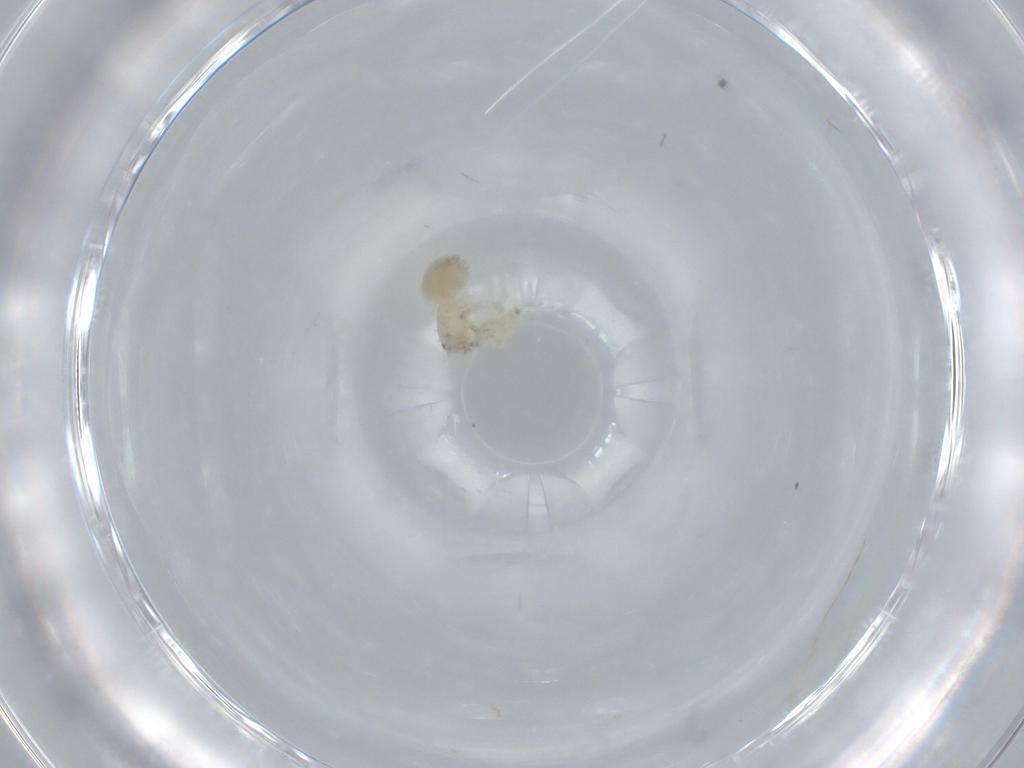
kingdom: Animalia
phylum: Arthropoda
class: Arachnida
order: Araneae
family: Oonopidae
